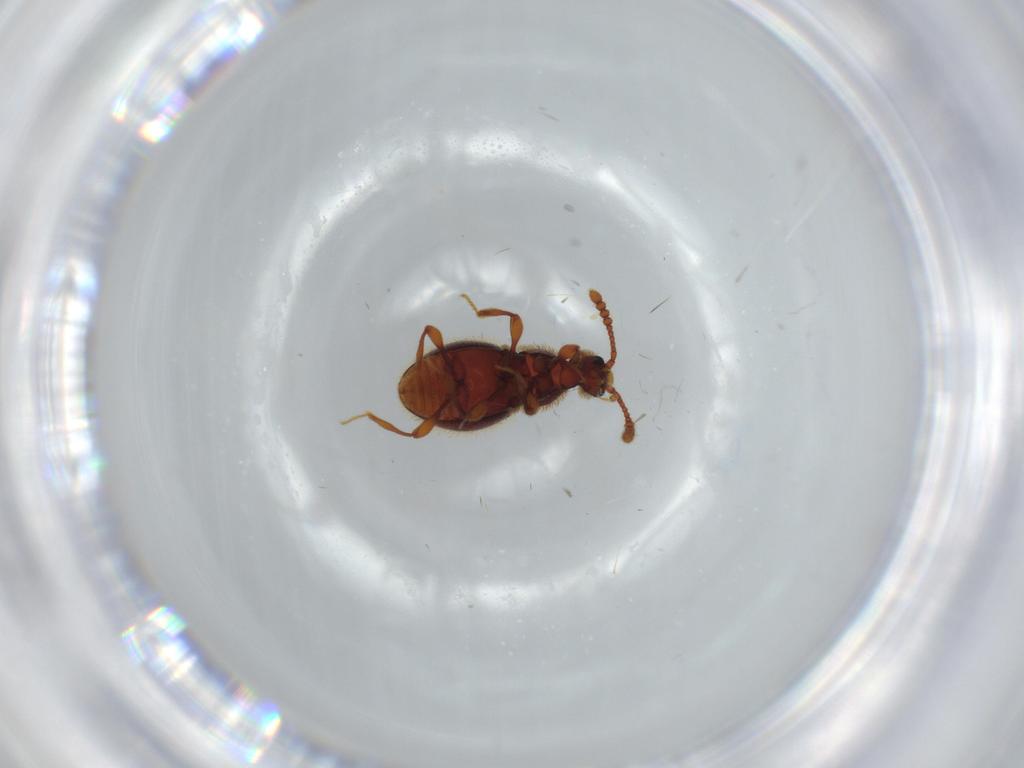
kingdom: Animalia
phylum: Arthropoda
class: Insecta
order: Coleoptera
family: Staphylinidae
